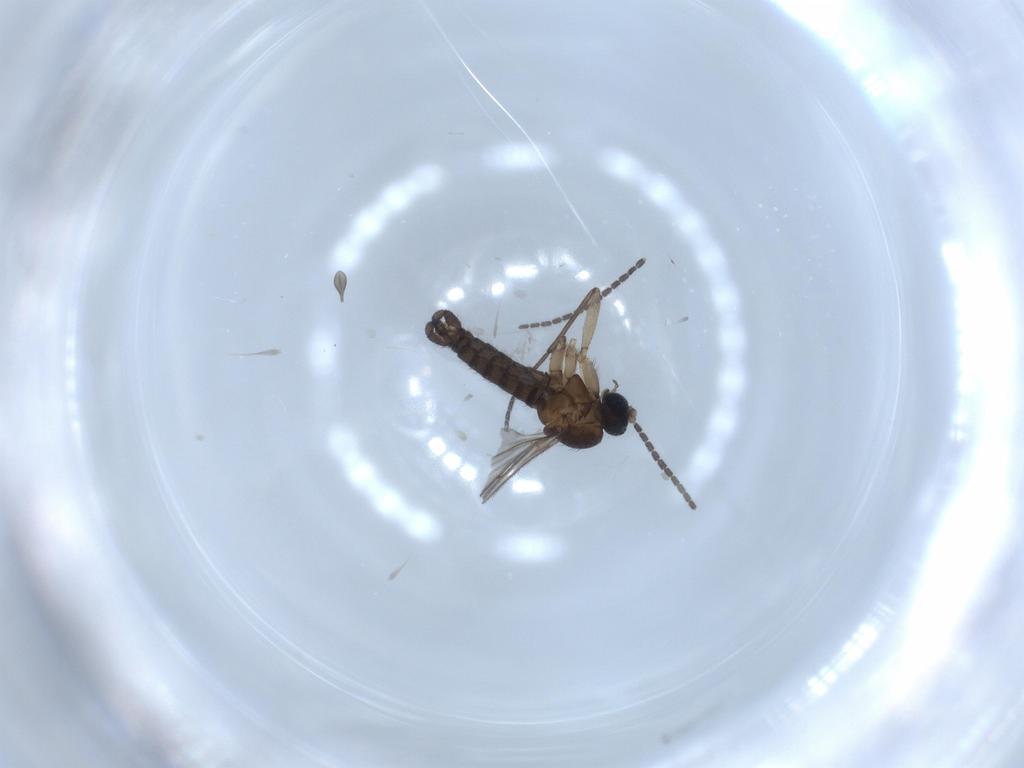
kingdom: Animalia
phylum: Arthropoda
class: Insecta
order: Diptera
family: Sciaridae
